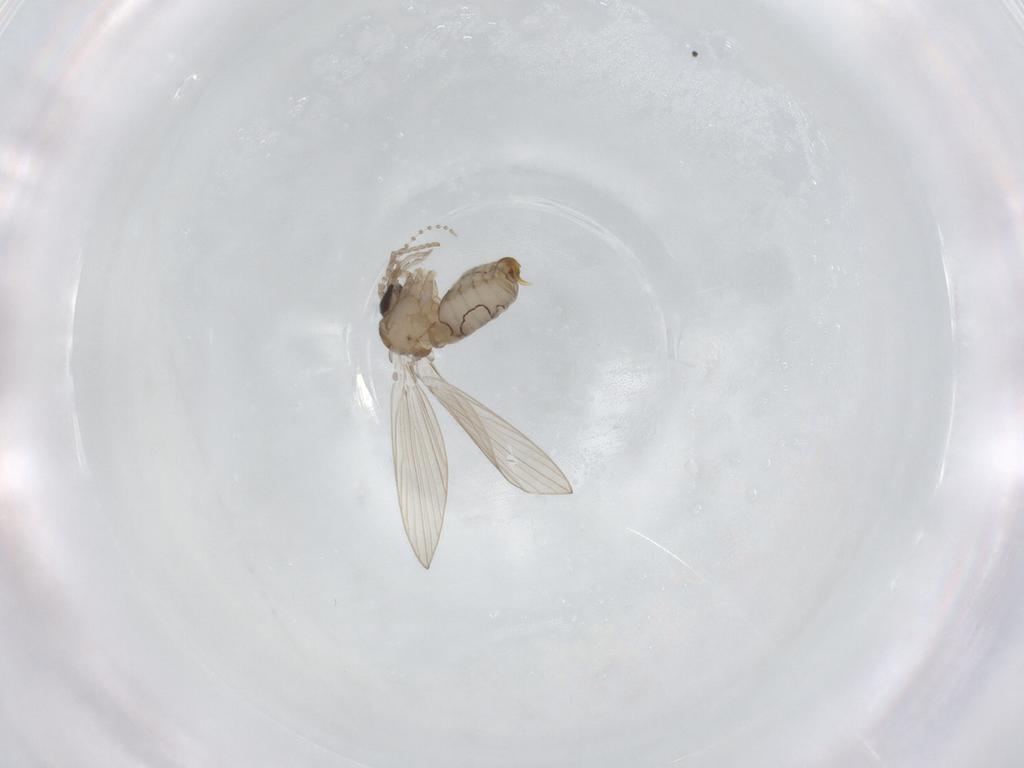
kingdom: Animalia
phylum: Arthropoda
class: Insecta
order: Diptera
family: Psychodidae
